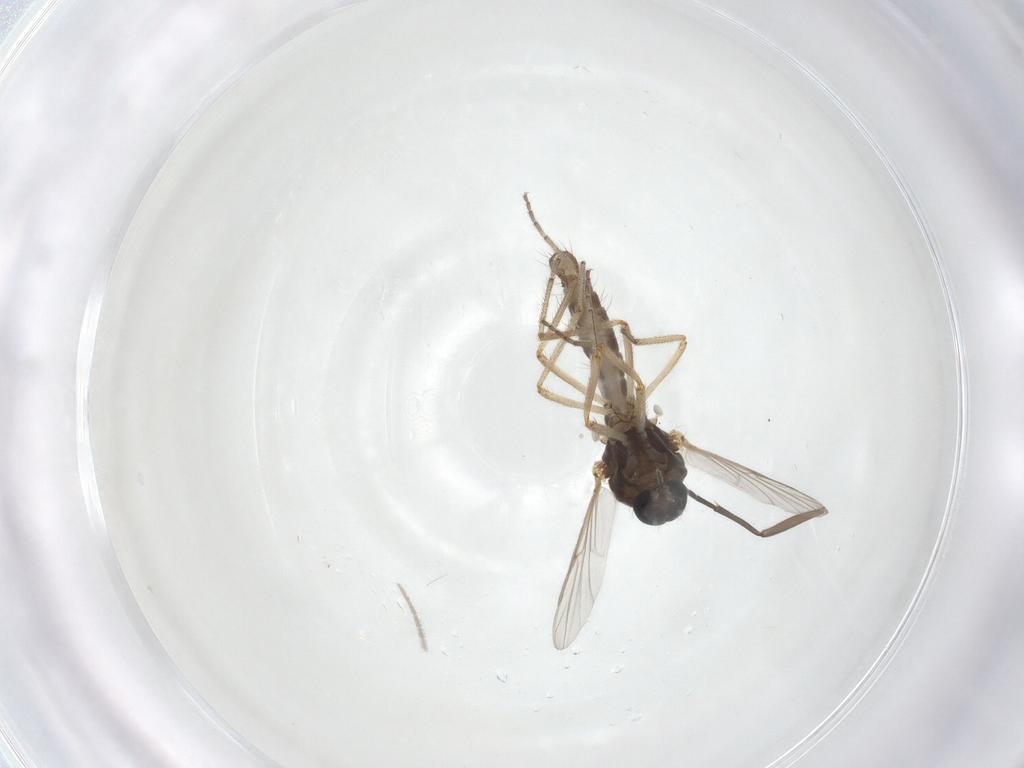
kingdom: Animalia
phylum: Arthropoda
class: Insecta
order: Diptera
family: Ceratopogonidae
